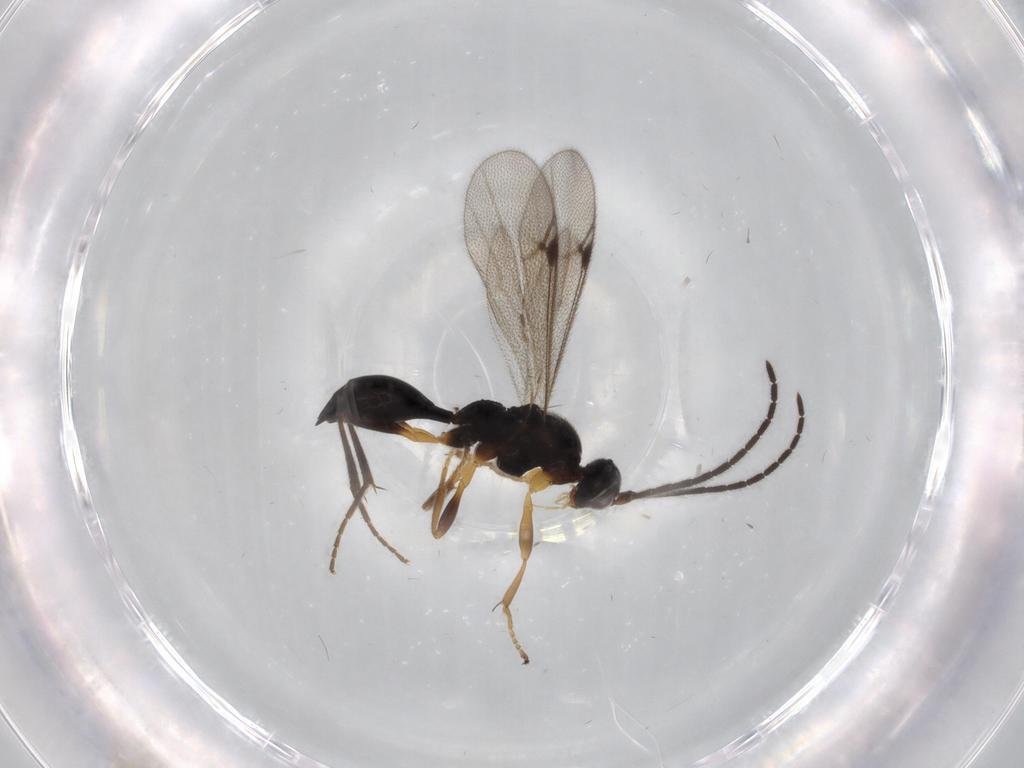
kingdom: Animalia
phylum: Arthropoda
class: Insecta
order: Hymenoptera
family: Proctotrupidae
